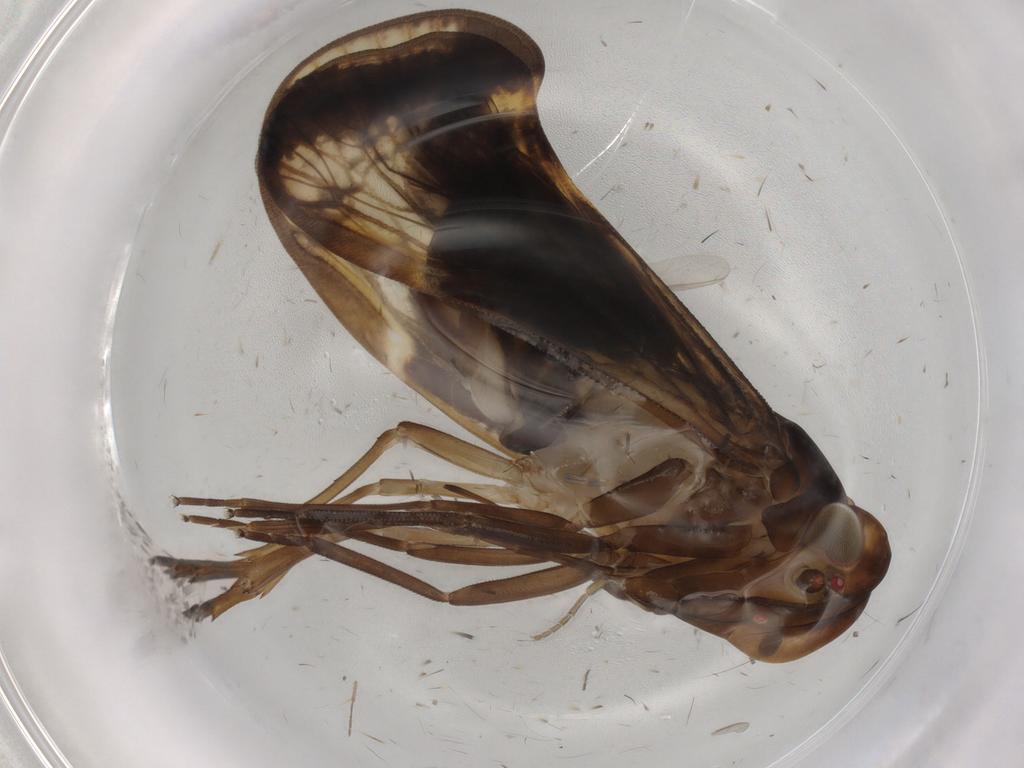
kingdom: Animalia
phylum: Arthropoda
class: Insecta
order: Hemiptera
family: Cixiidae
